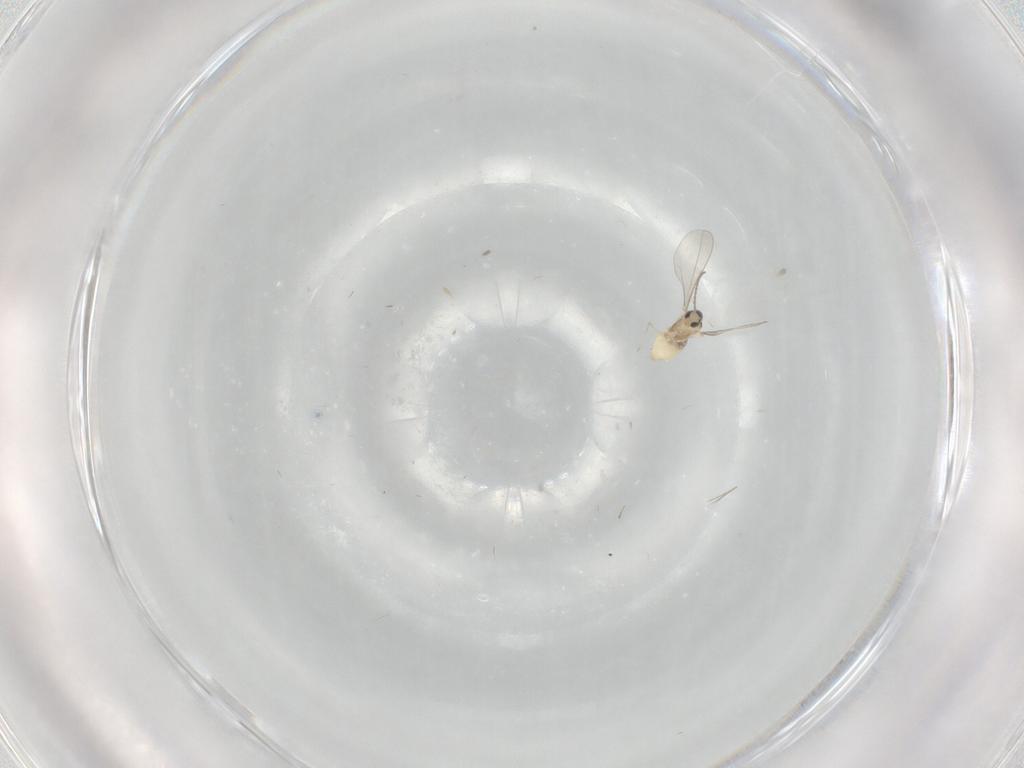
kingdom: Animalia
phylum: Arthropoda
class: Insecta
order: Diptera
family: Cecidomyiidae
